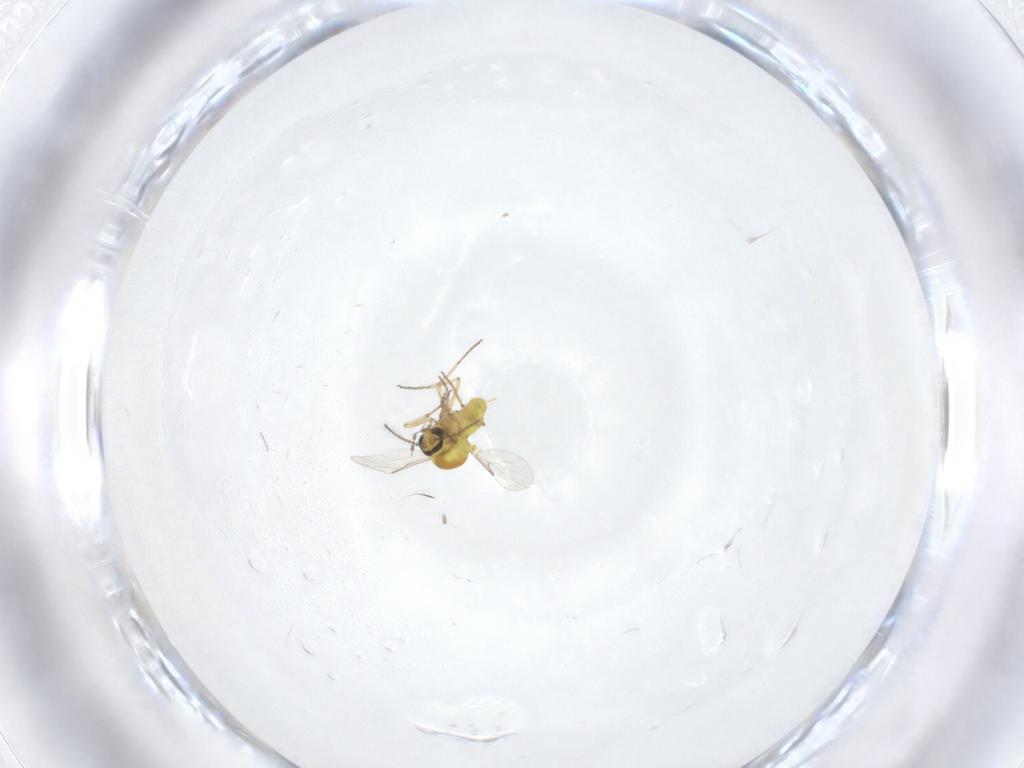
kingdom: Animalia
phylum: Arthropoda
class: Insecta
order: Diptera
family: Ceratopogonidae
